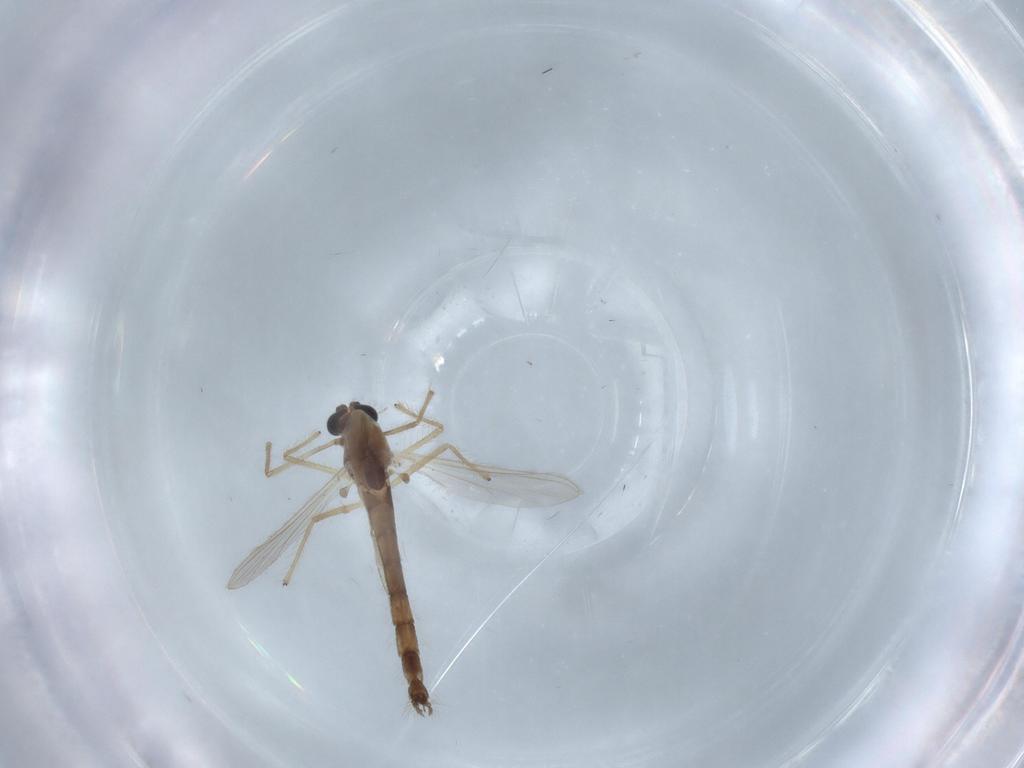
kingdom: Animalia
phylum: Arthropoda
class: Insecta
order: Diptera
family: Chironomidae
